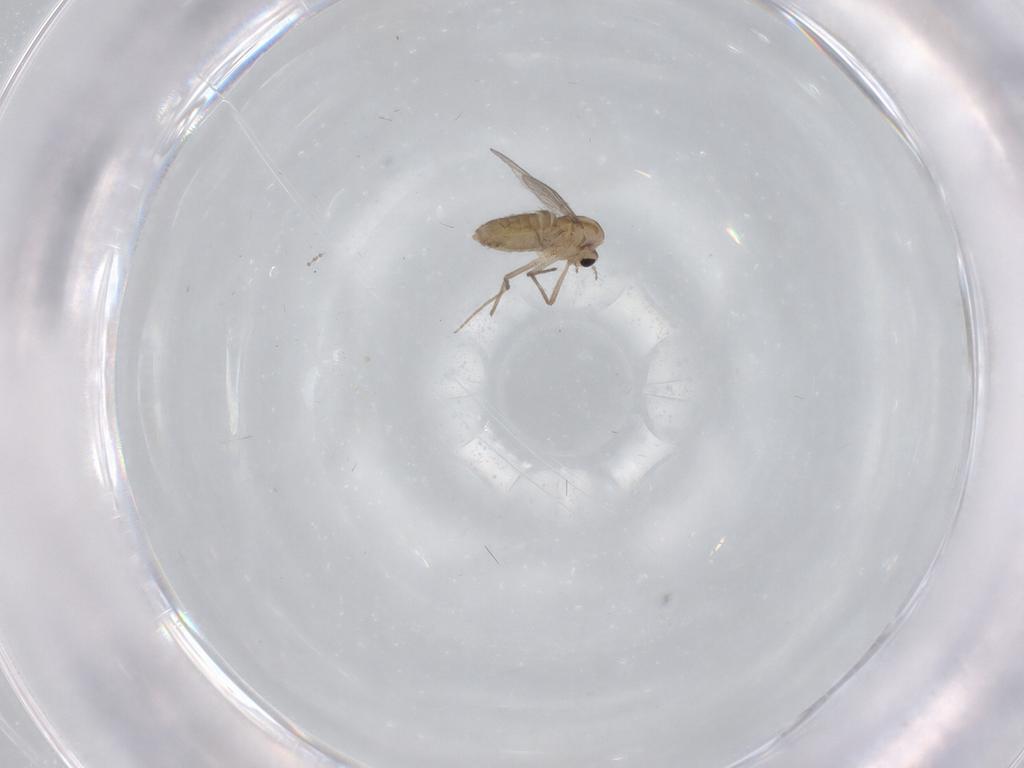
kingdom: Animalia
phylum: Arthropoda
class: Insecta
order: Diptera
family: Chironomidae
